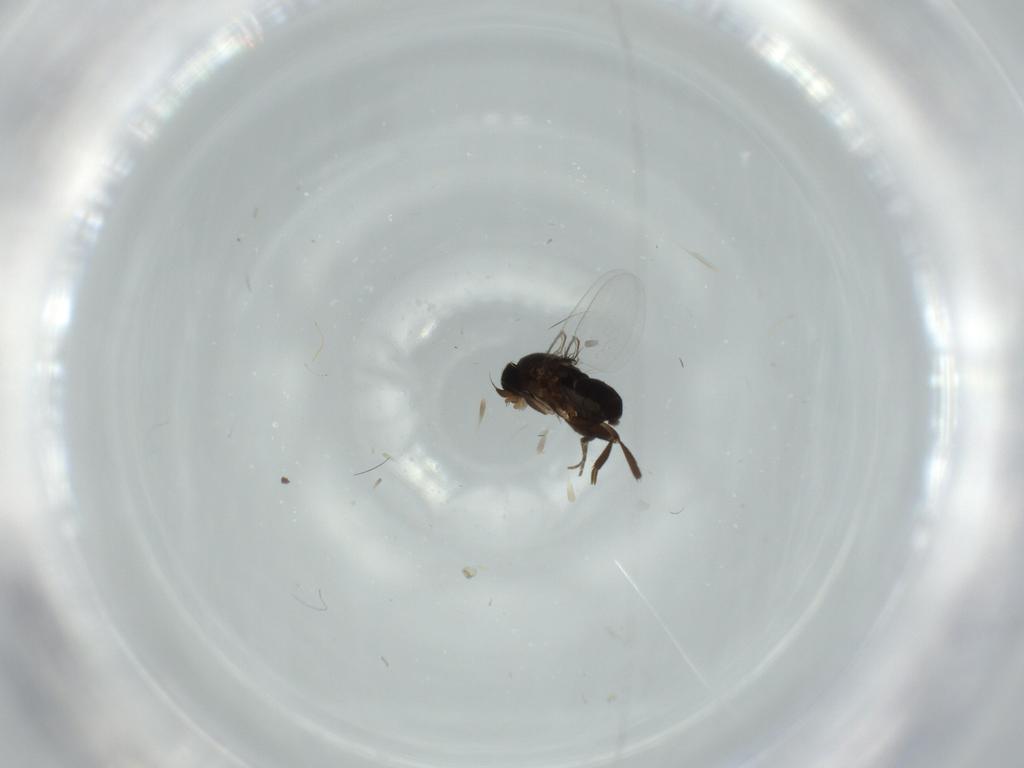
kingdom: Animalia
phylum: Arthropoda
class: Insecta
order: Diptera
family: Phoridae
